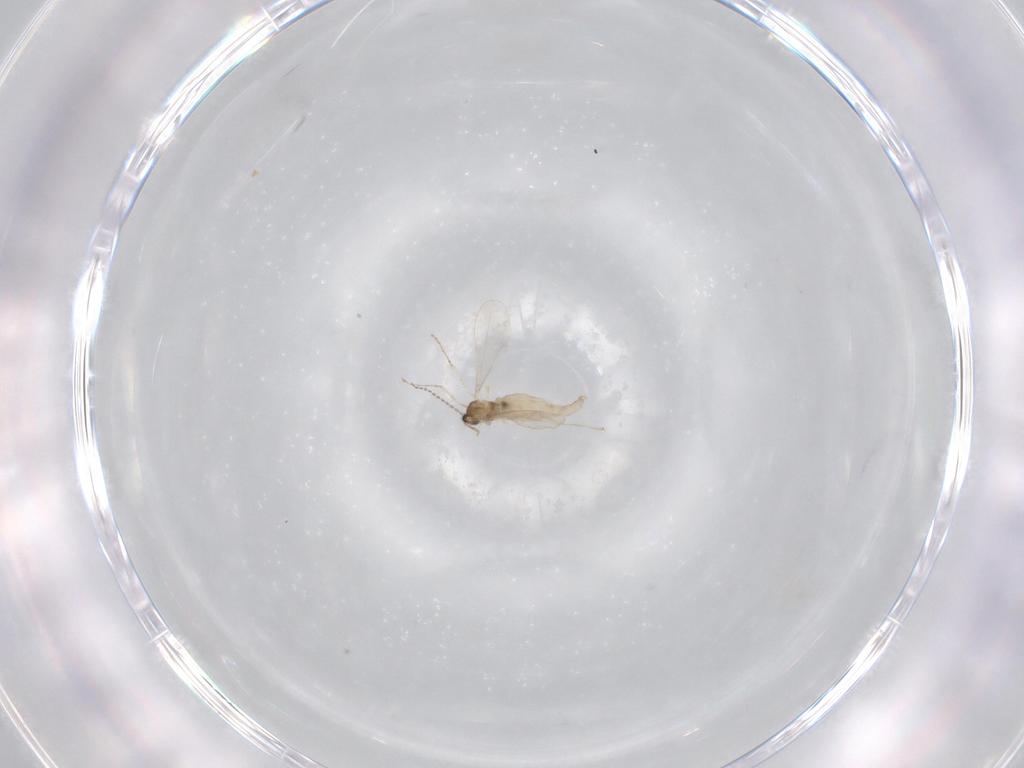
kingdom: Animalia
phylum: Arthropoda
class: Insecta
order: Diptera
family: Cecidomyiidae
